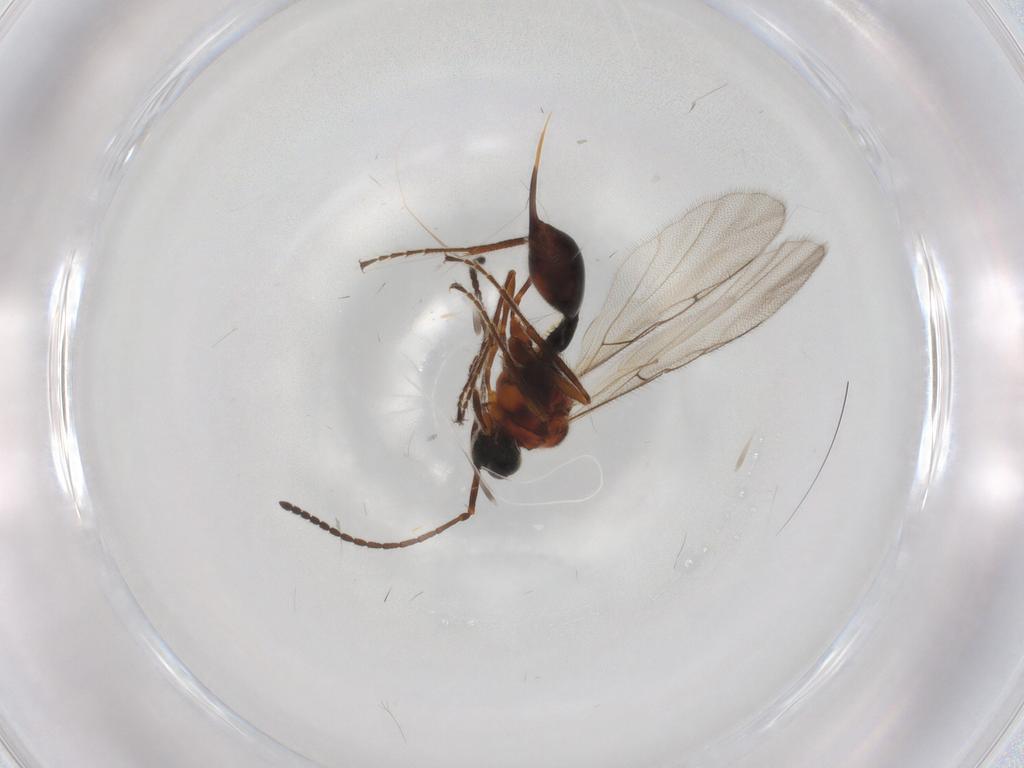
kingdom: Animalia
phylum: Arthropoda
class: Insecta
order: Hymenoptera
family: Diapriidae
